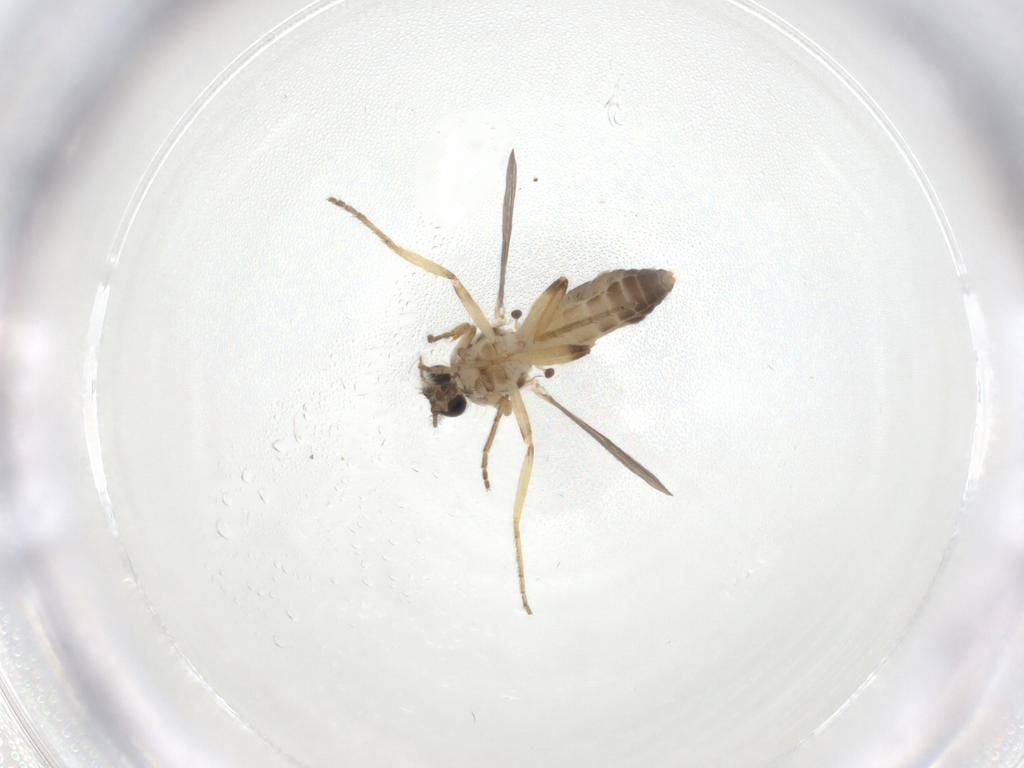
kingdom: Animalia
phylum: Arthropoda
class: Insecta
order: Diptera
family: Ceratopogonidae
